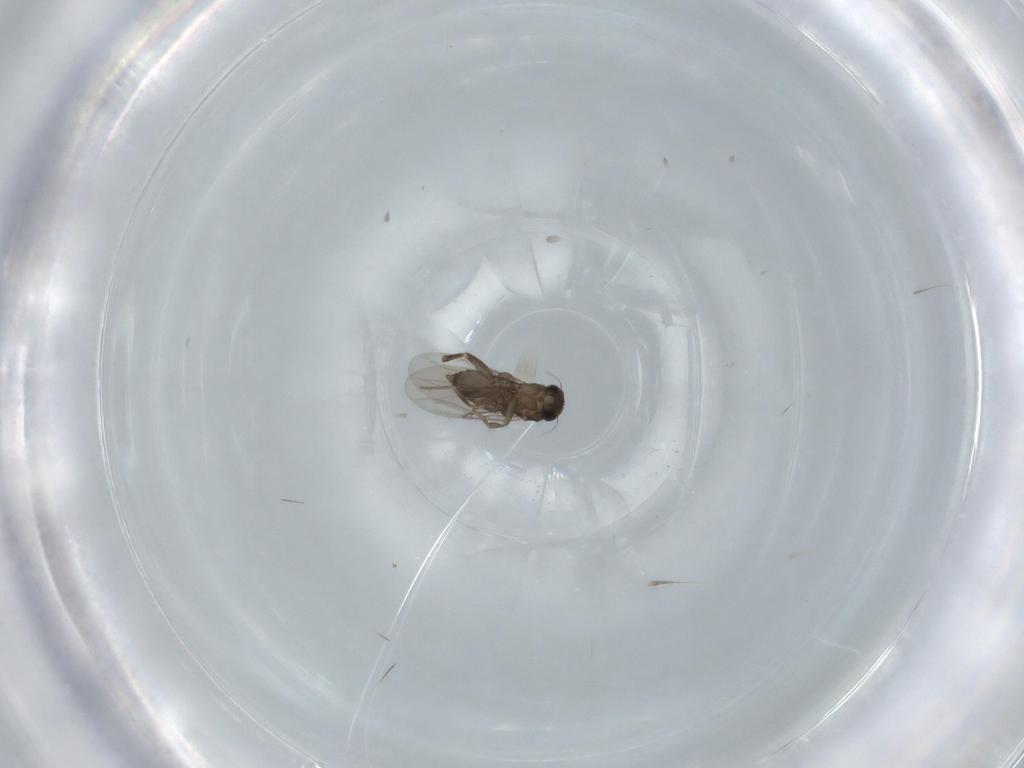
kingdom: Animalia
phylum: Arthropoda
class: Insecta
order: Diptera
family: Phoridae
